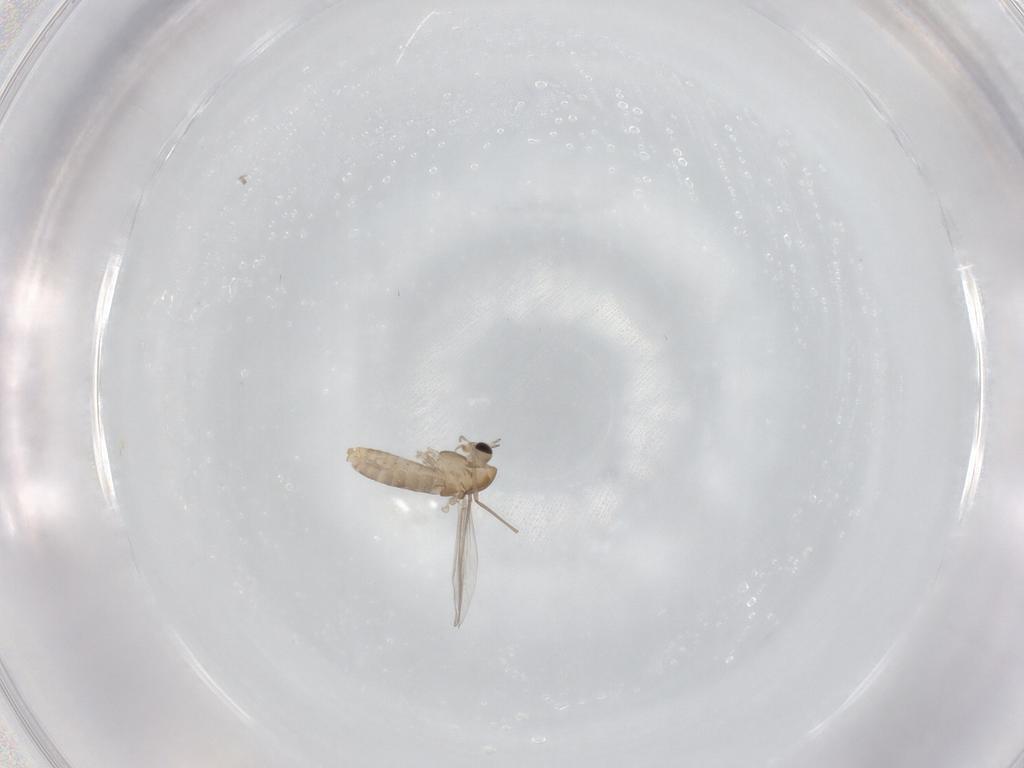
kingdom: Animalia
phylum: Arthropoda
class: Insecta
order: Diptera
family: Chironomidae
